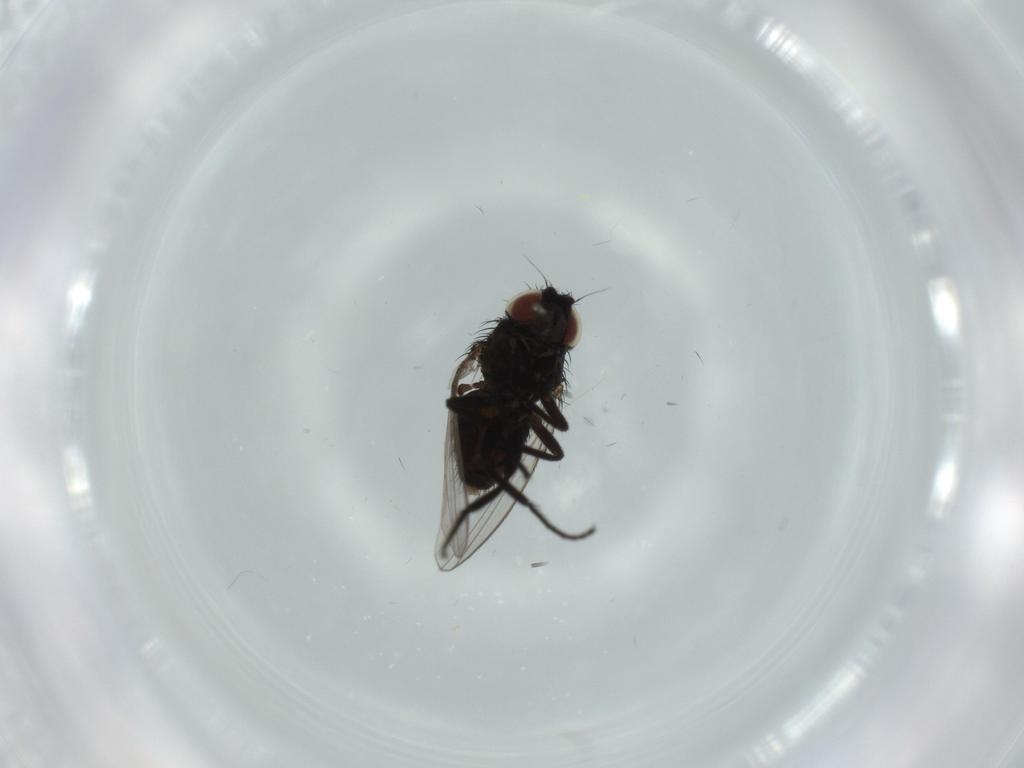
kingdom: Animalia
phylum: Arthropoda
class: Insecta
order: Diptera
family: Milichiidae
